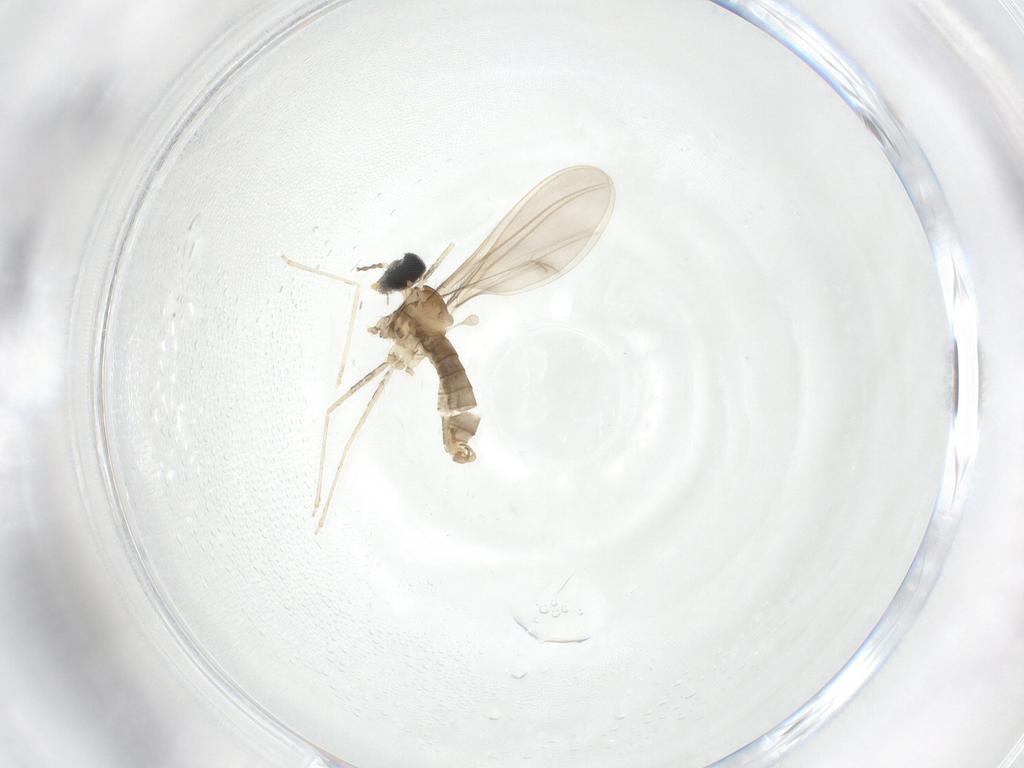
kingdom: Animalia
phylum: Arthropoda
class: Insecta
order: Diptera
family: Cecidomyiidae
